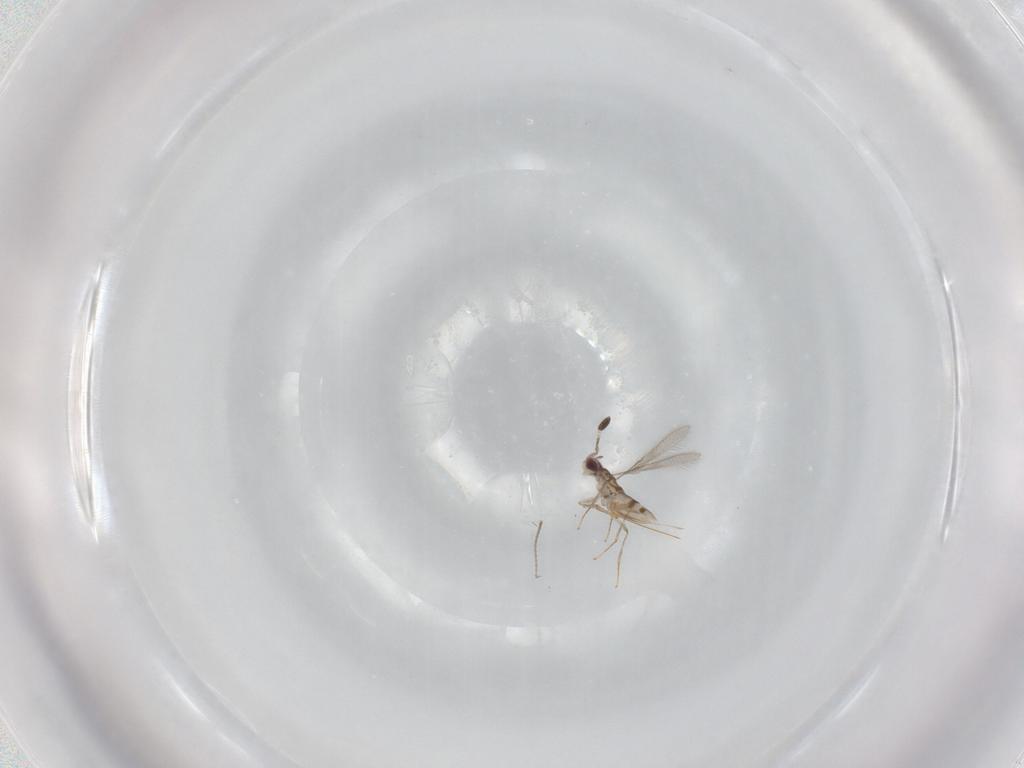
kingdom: Animalia
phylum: Arthropoda
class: Insecta
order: Hymenoptera
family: Mymaridae
